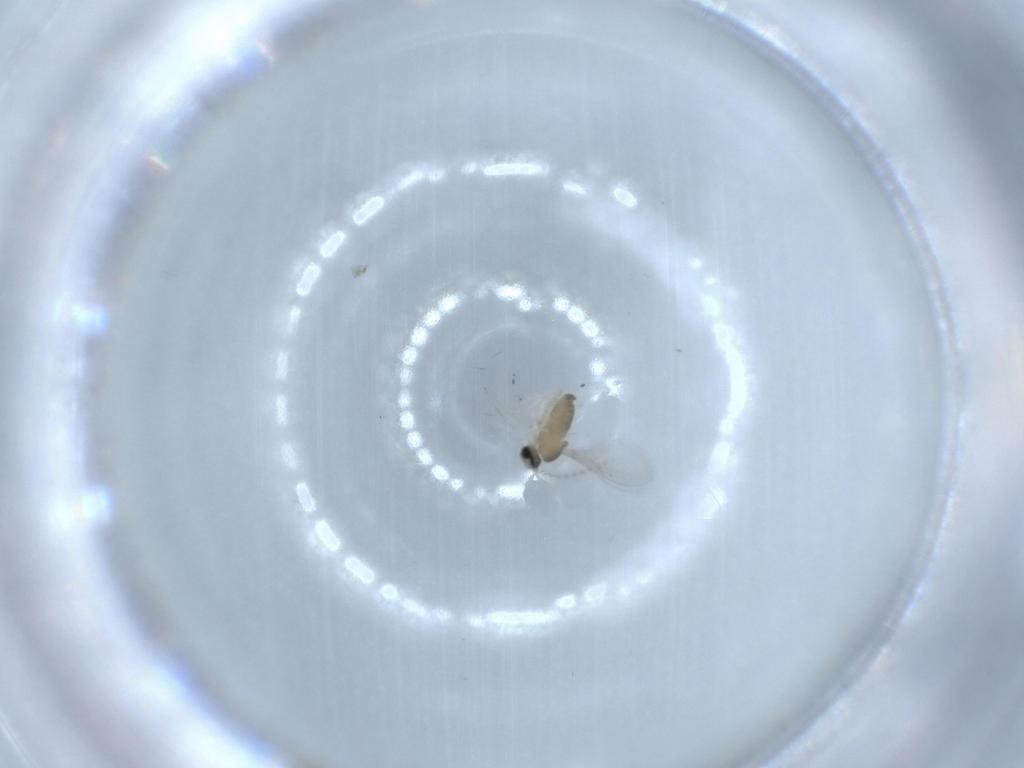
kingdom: Animalia
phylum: Arthropoda
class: Insecta
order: Diptera
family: Cecidomyiidae
